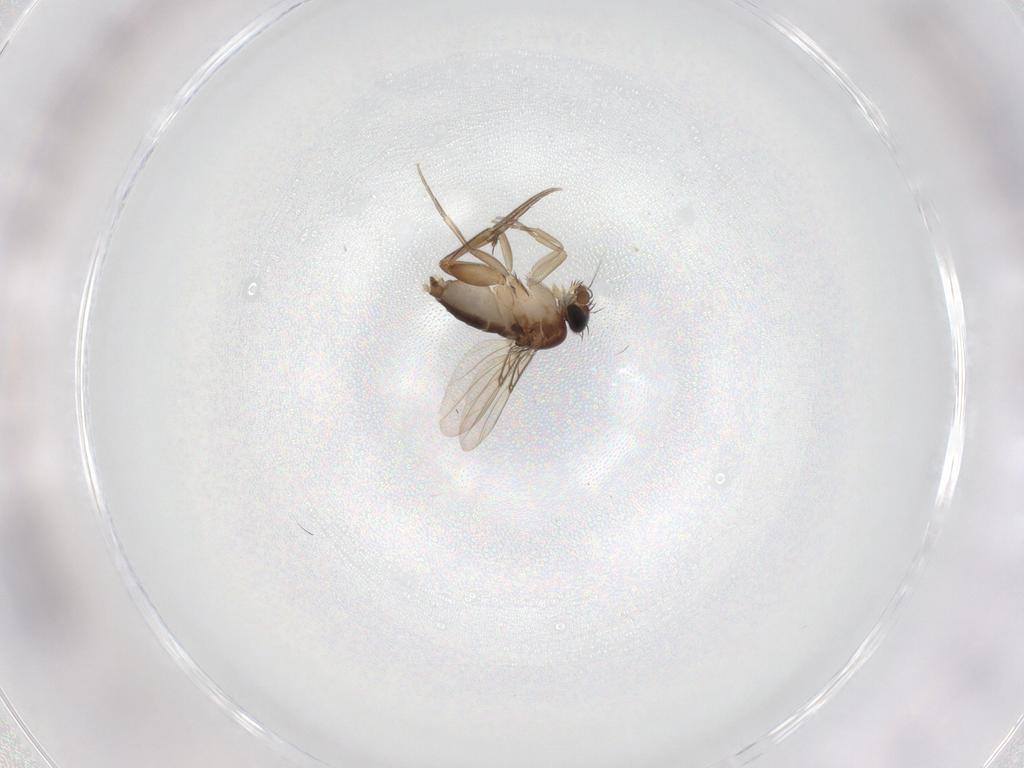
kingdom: Animalia
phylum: Arthropoda
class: Insecta
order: Diptera
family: Phoridae
